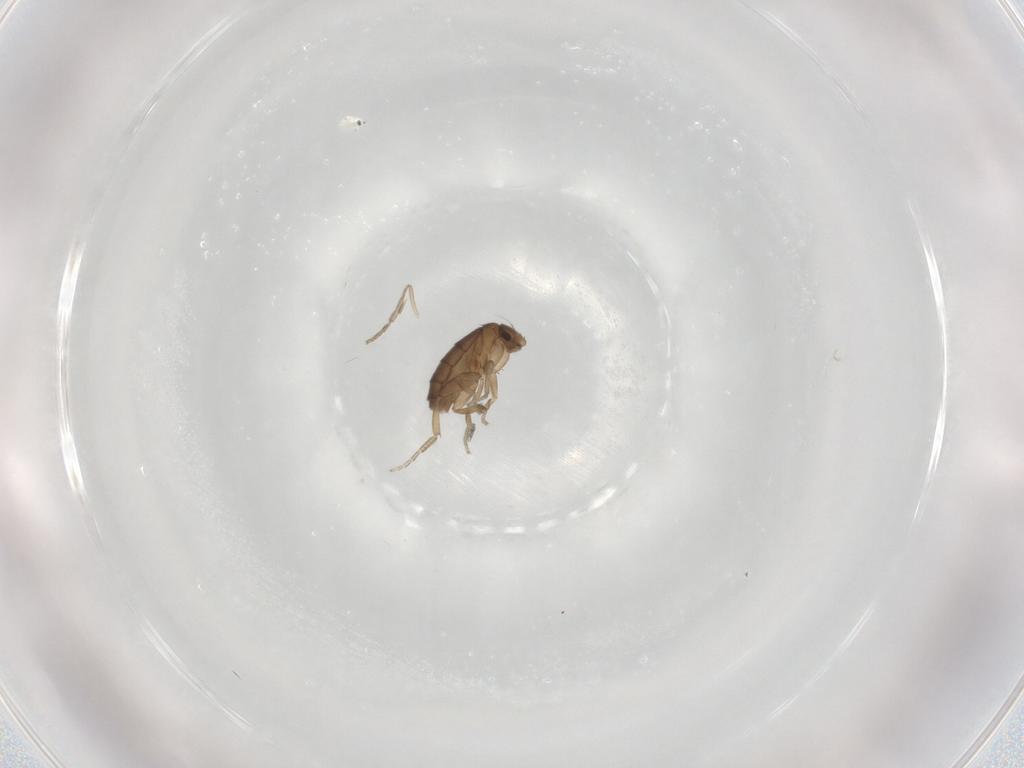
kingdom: Animalia
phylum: Arthropoda
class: Insecta
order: Diptera
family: Phoridae
